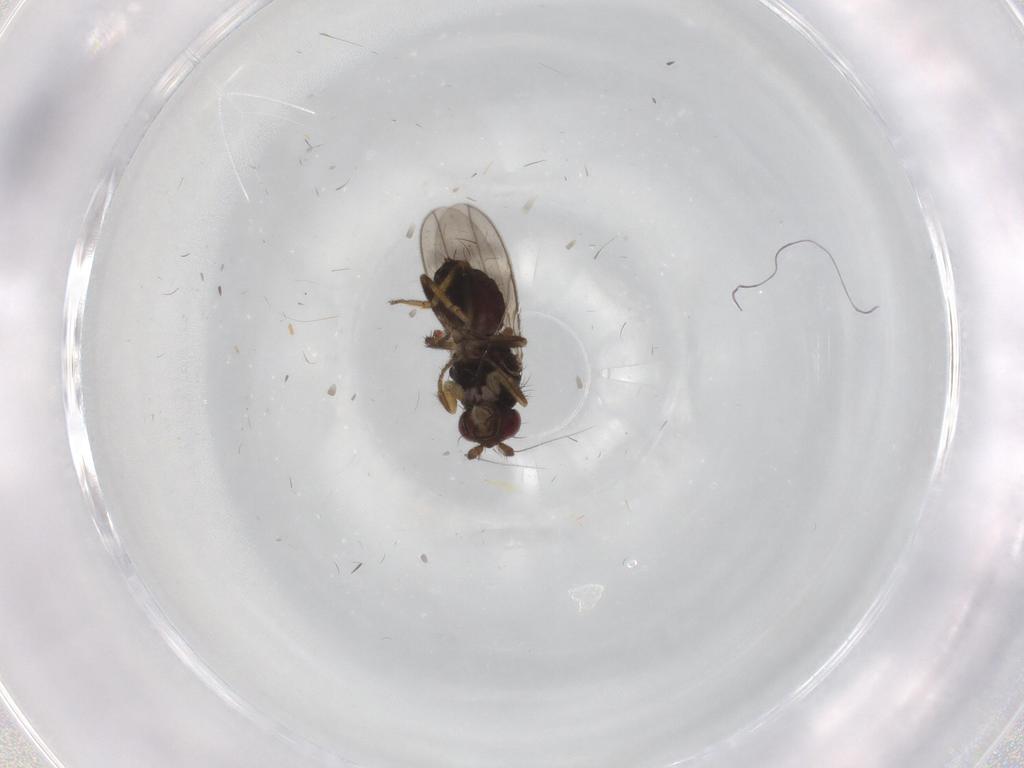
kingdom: Animalia
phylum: Arthropoda
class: Insecta
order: Diptera
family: Sphaeroceridae
